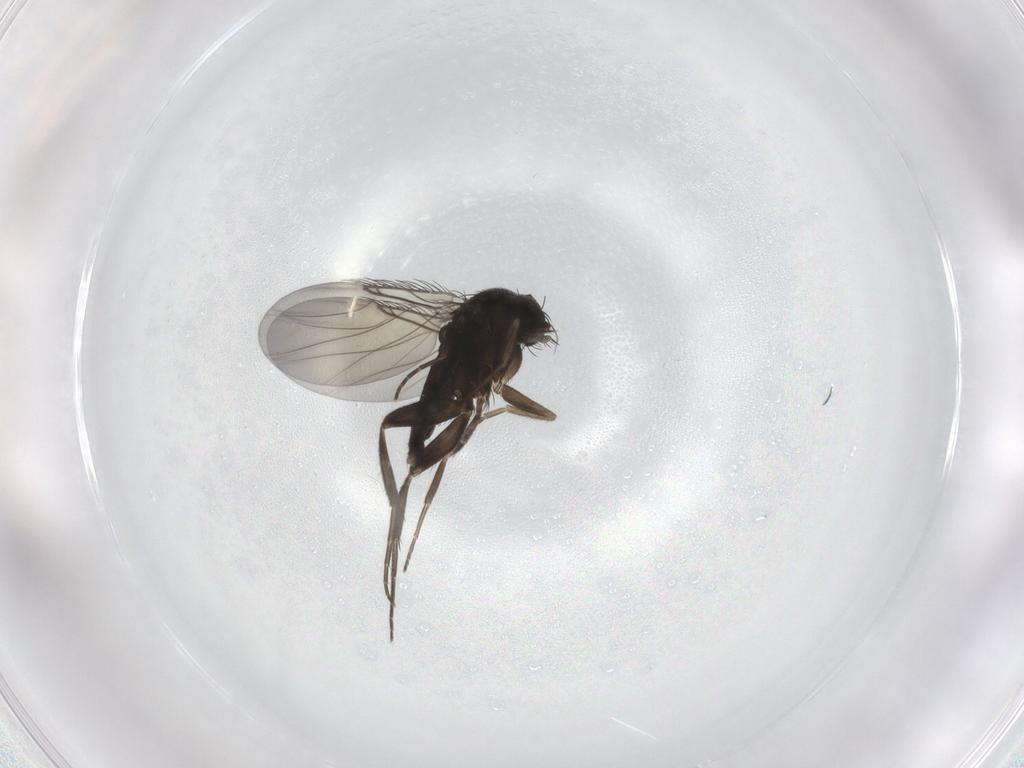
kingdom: Animalia
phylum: Arthropoda
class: Insecta
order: Diptera
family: Phoridae
